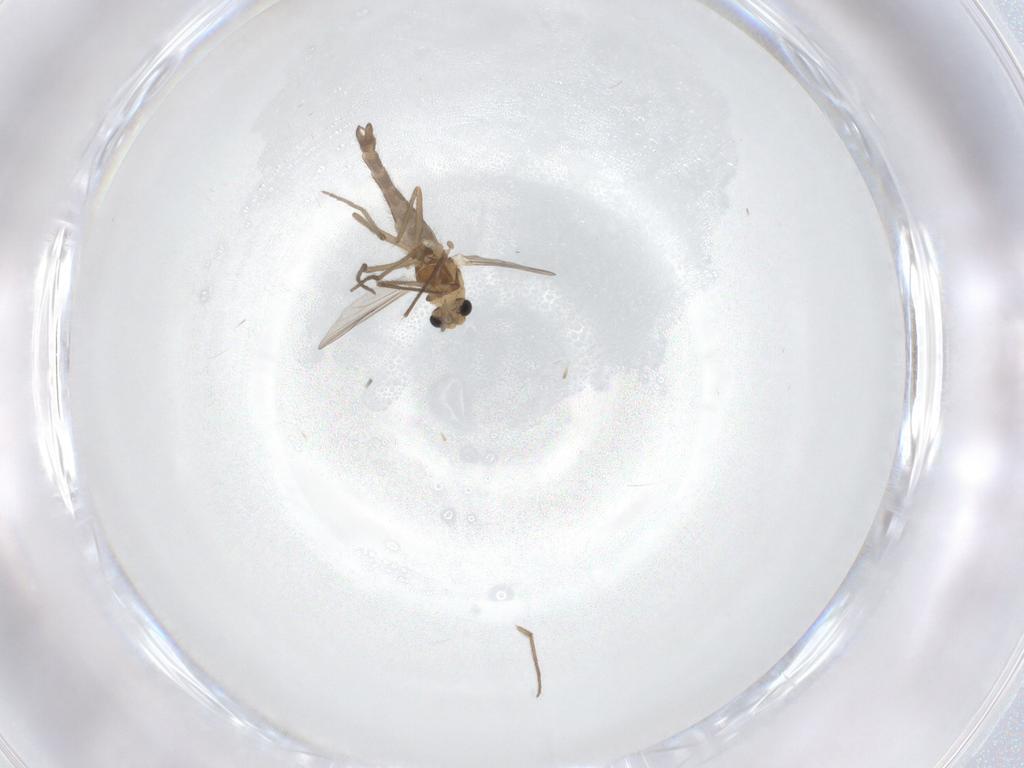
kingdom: Animalia
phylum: Arthropoda
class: Insecta
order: Diptera
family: Chironomidae
